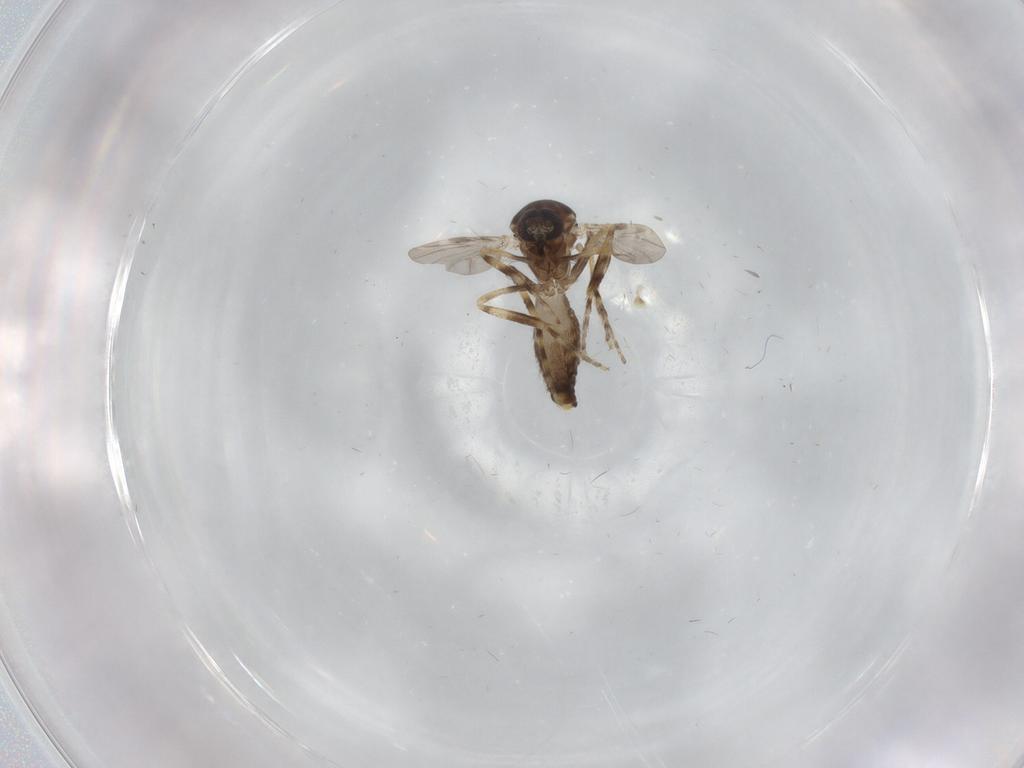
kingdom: Animalia
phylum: Arthropoda
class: Insecta
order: Diptera
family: Ceratopogonidae
